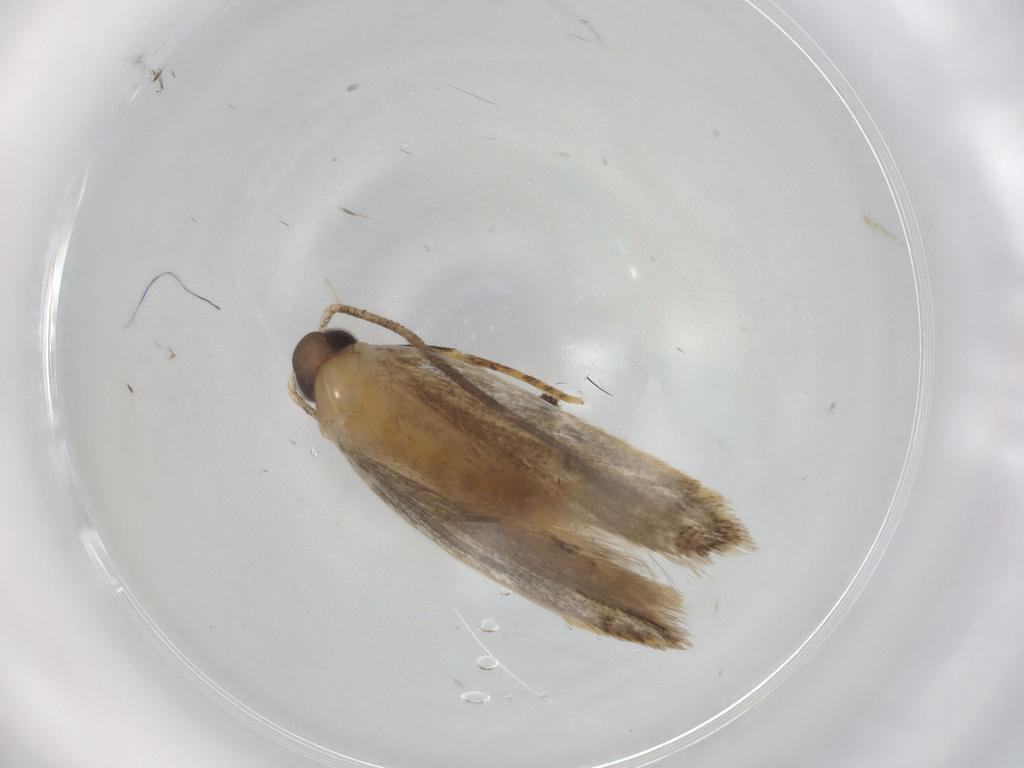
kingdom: Animalia
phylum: Arthropoda
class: Insecta
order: Lepidoptera
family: Autostichidae
